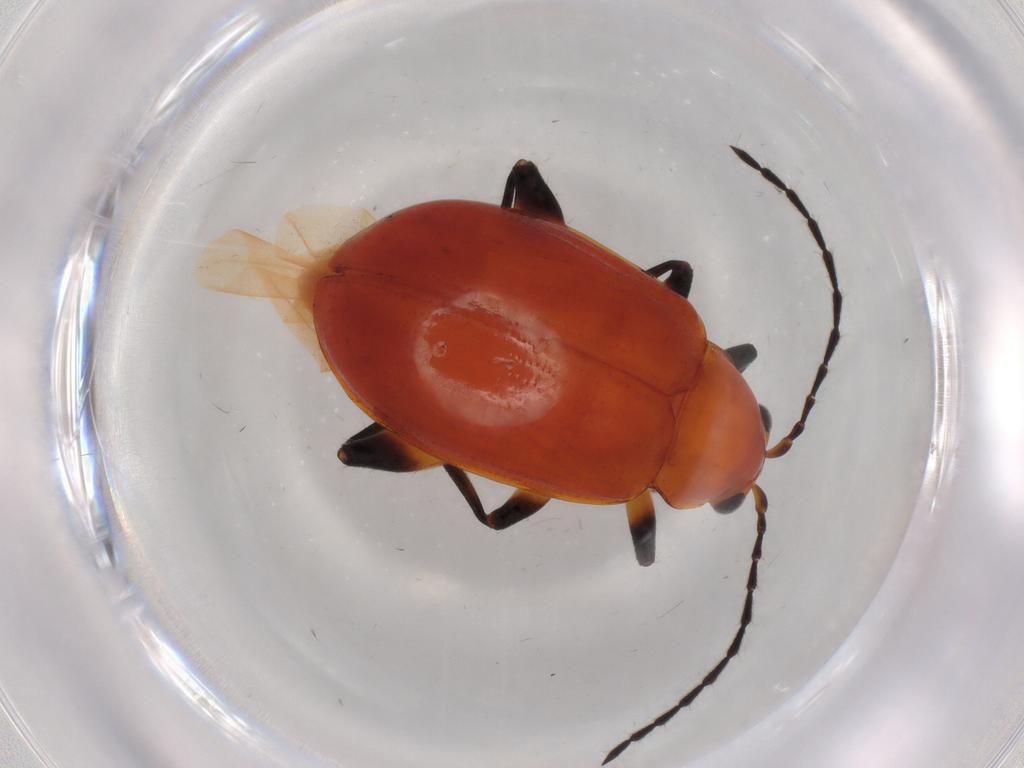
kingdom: Animalia
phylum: Arthropoda
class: Insecta
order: Coleoptera
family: Chrysomelidae
